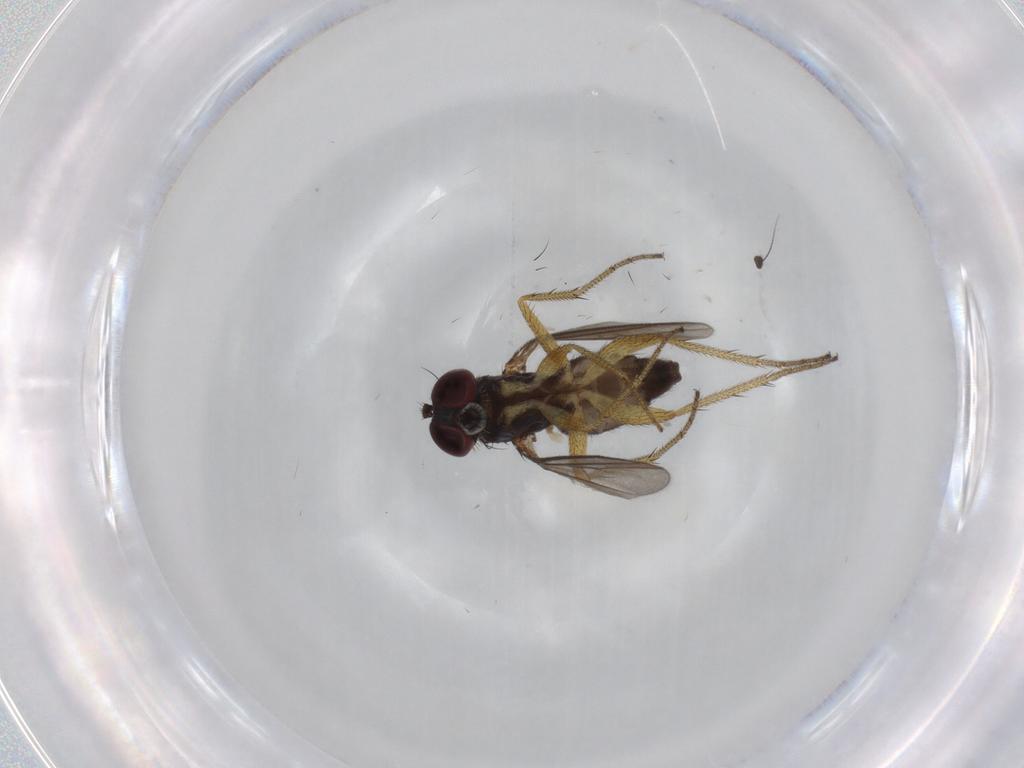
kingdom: Animalia
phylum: Arthropoda
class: Insecta
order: Diptera
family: Dolichopodidae
